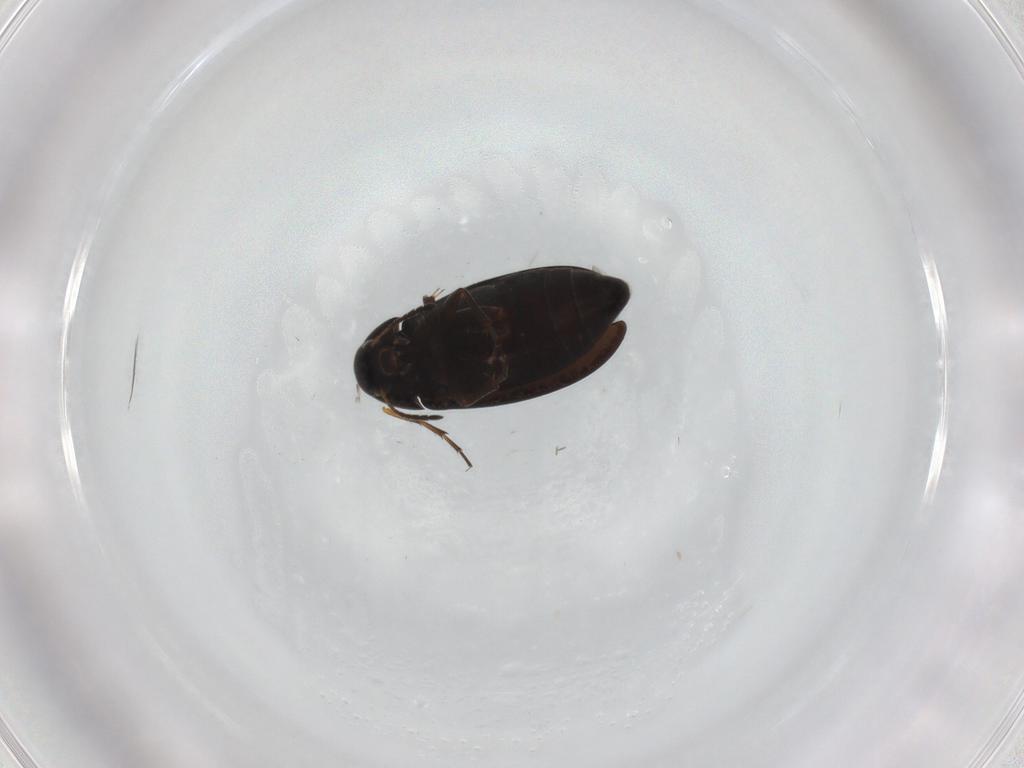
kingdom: Animalia
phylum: Arthropoda
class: Insecta
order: Coleoptera
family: Scraptiidae
